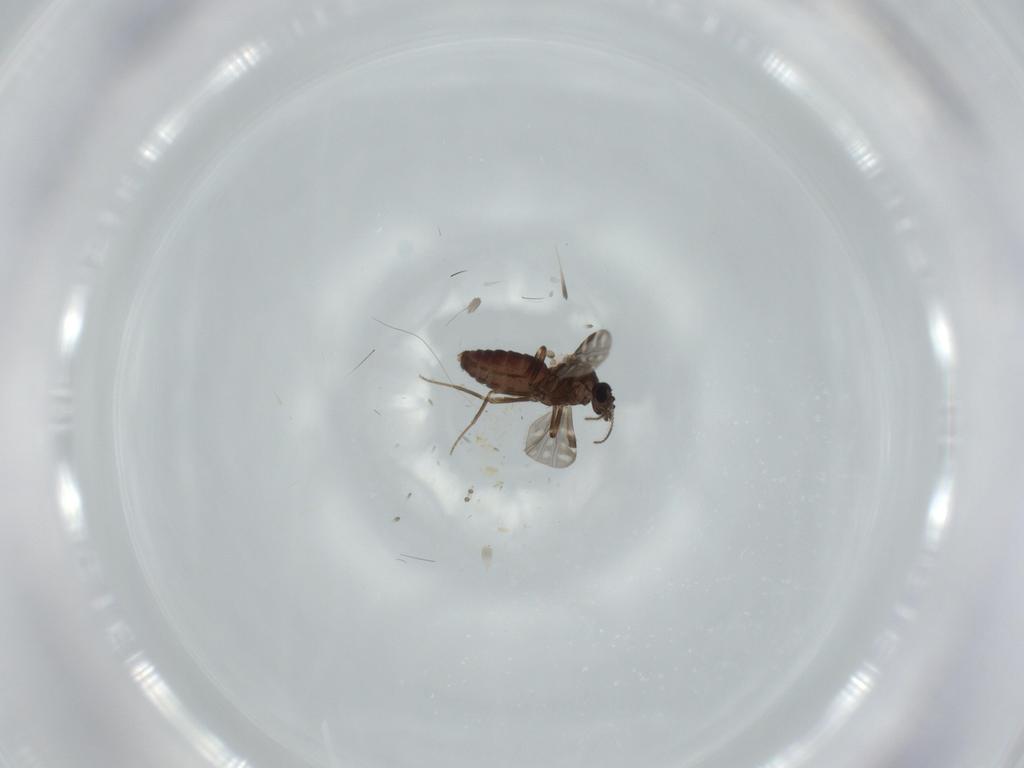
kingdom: Animalia
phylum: Arthropoda
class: Insecta
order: Diptera
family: Psychodidae
